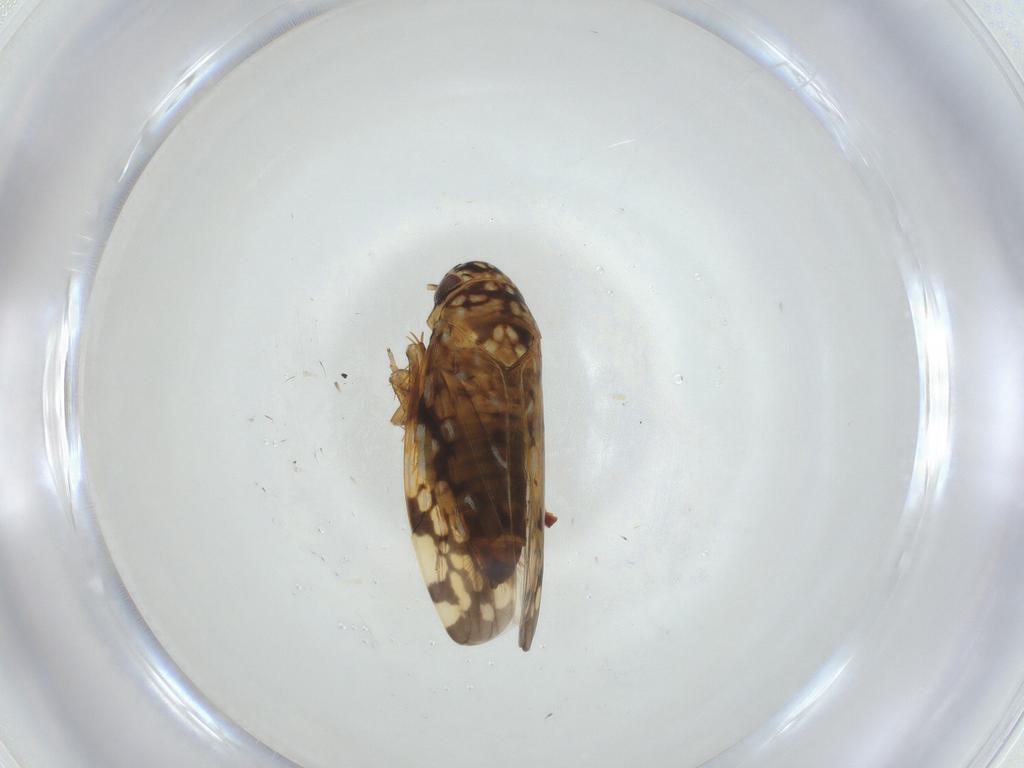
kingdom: Animalia
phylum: Arthropoda
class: Insecta
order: Hemiptera
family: Cicadellidae
